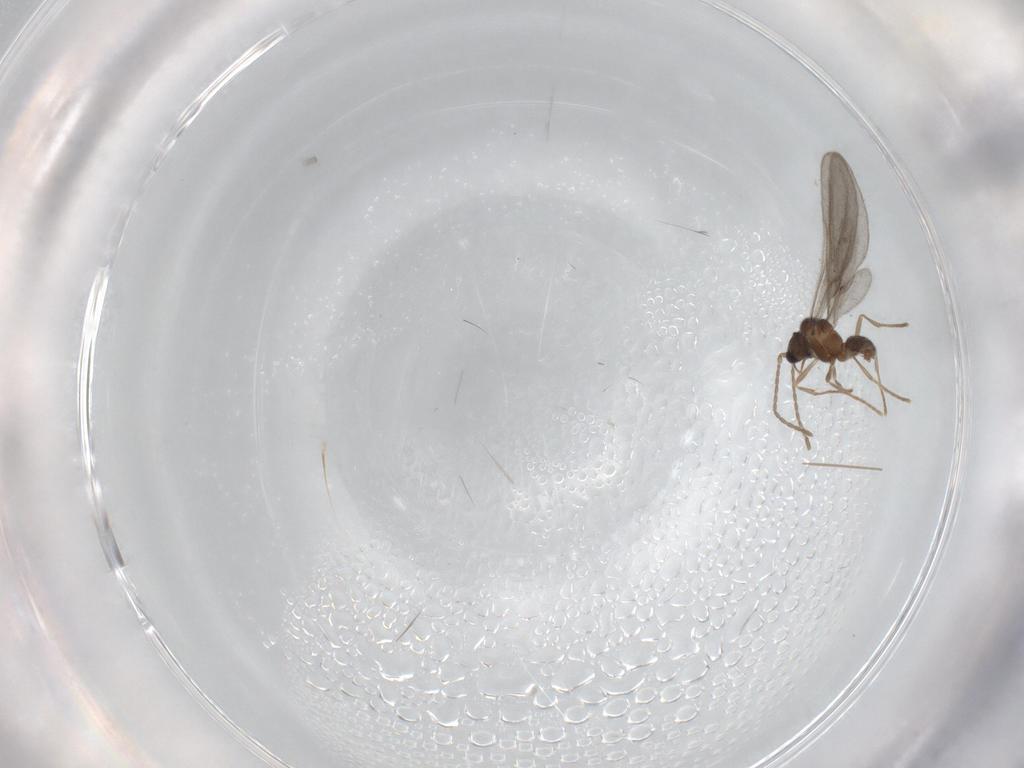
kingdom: Animalia
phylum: Arthropoda
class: Insecta
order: Hymenoptera
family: Formicidae
